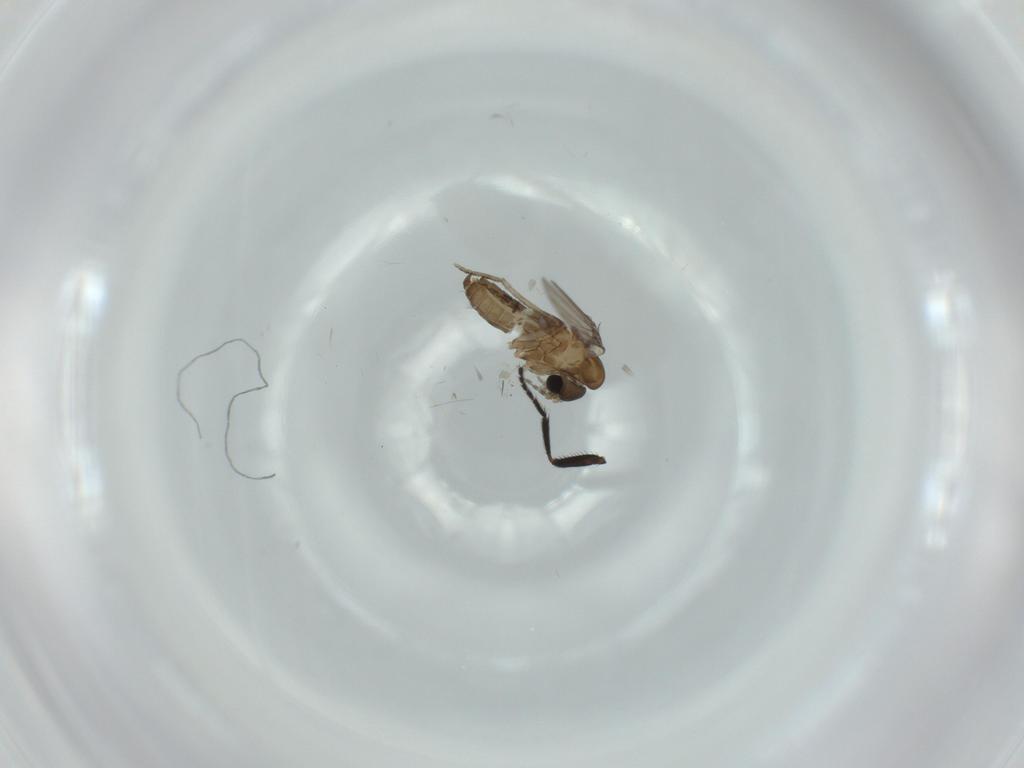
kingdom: Animalia
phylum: Arthropoda
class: Insecta
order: Diptera
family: Psychodidae
